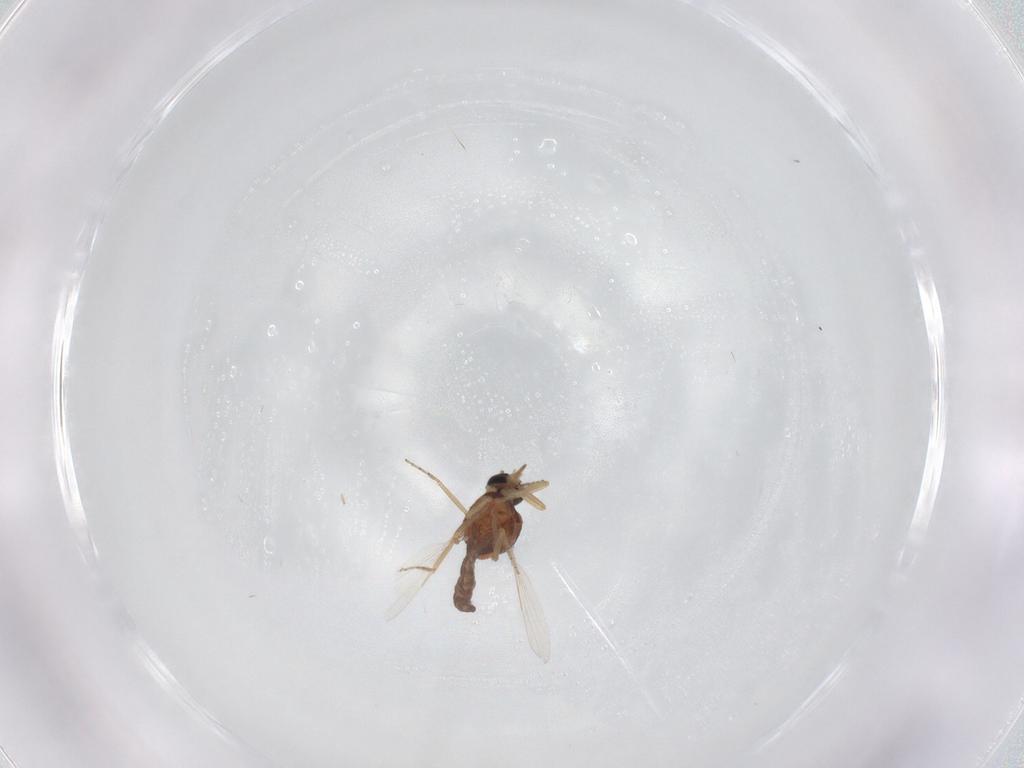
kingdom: Animalia
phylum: Arthropoda
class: Insecta
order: Diptera
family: Ceratopogonidae
